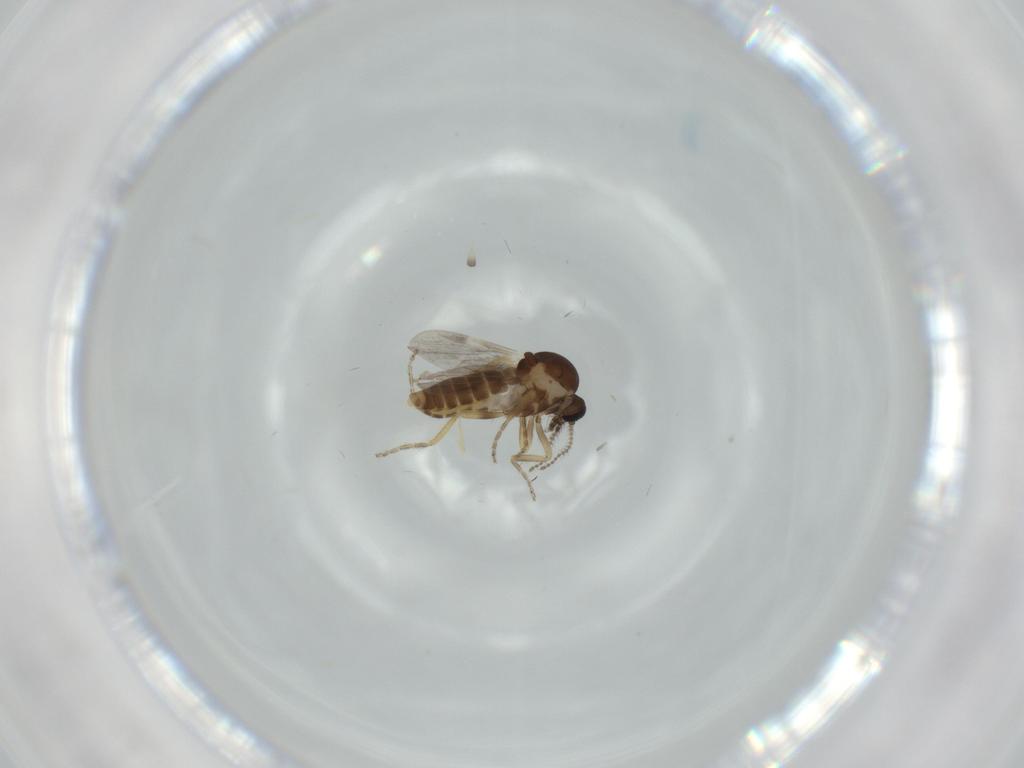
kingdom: Animalia
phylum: Arthropoda
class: Insecta
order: Diptera
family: Ceratopogonidae
